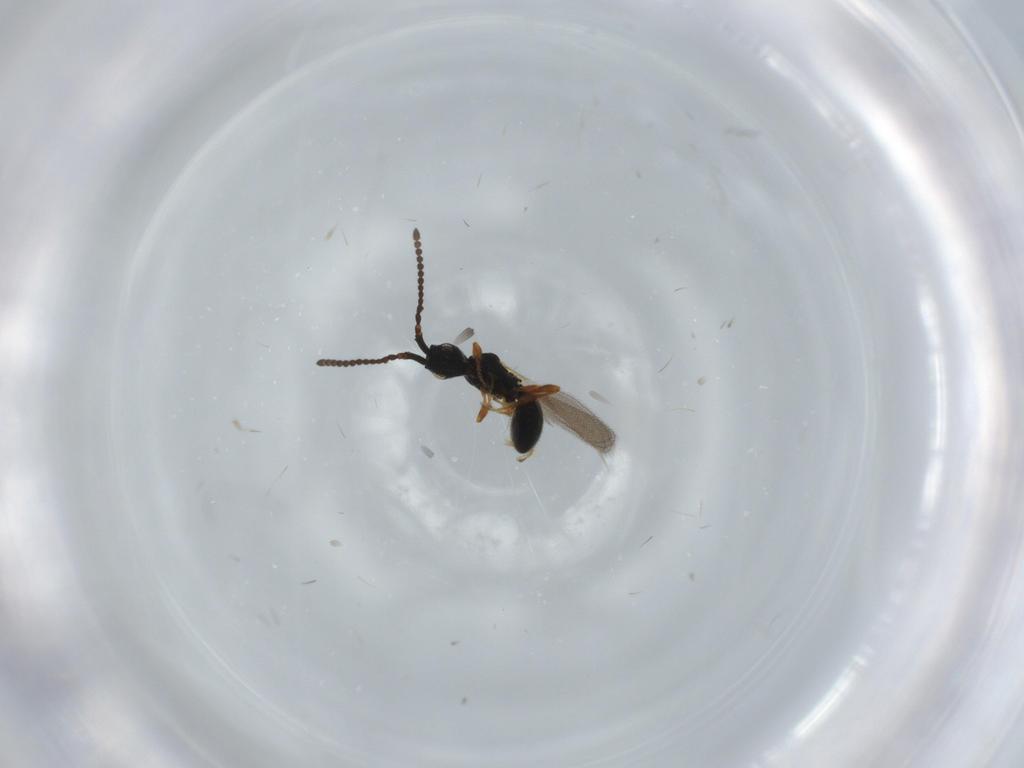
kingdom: Animalia
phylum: Arthropoda
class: Insecta
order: Hymenoptera
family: Diapriidae
